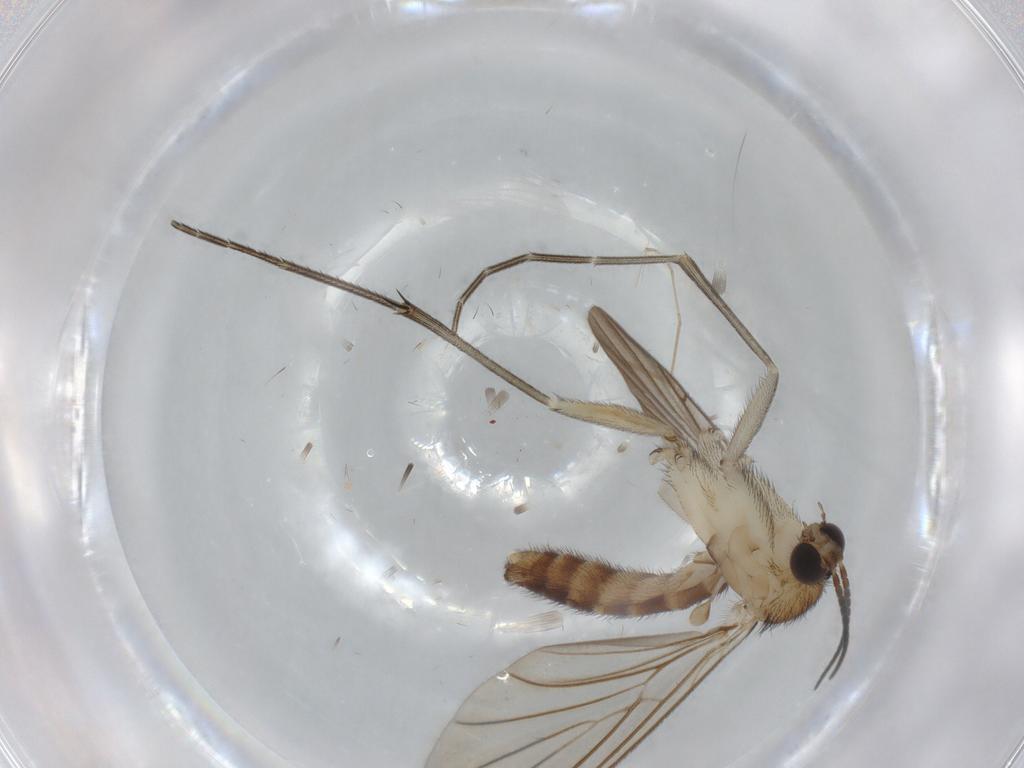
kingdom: Animalia
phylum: Arthropoda
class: Insecta
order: Diptera
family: Cecidomyiidae
